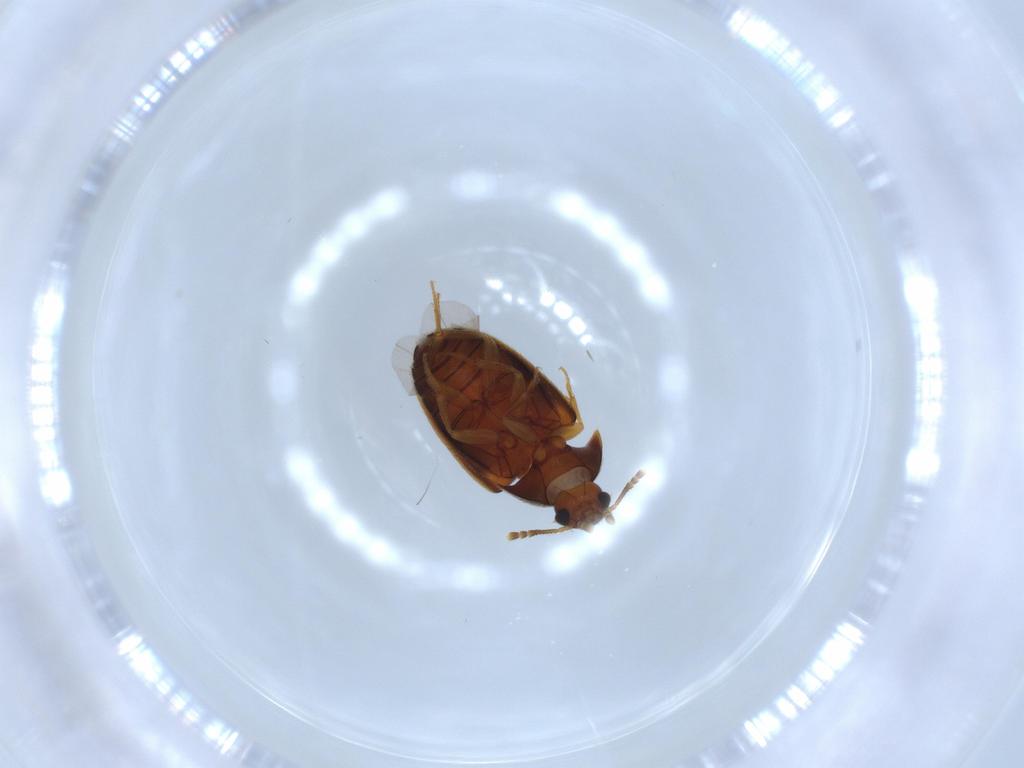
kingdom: Animalia
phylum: Arthropoda
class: Insecta
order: Coleoptera
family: Mycetophagidae
